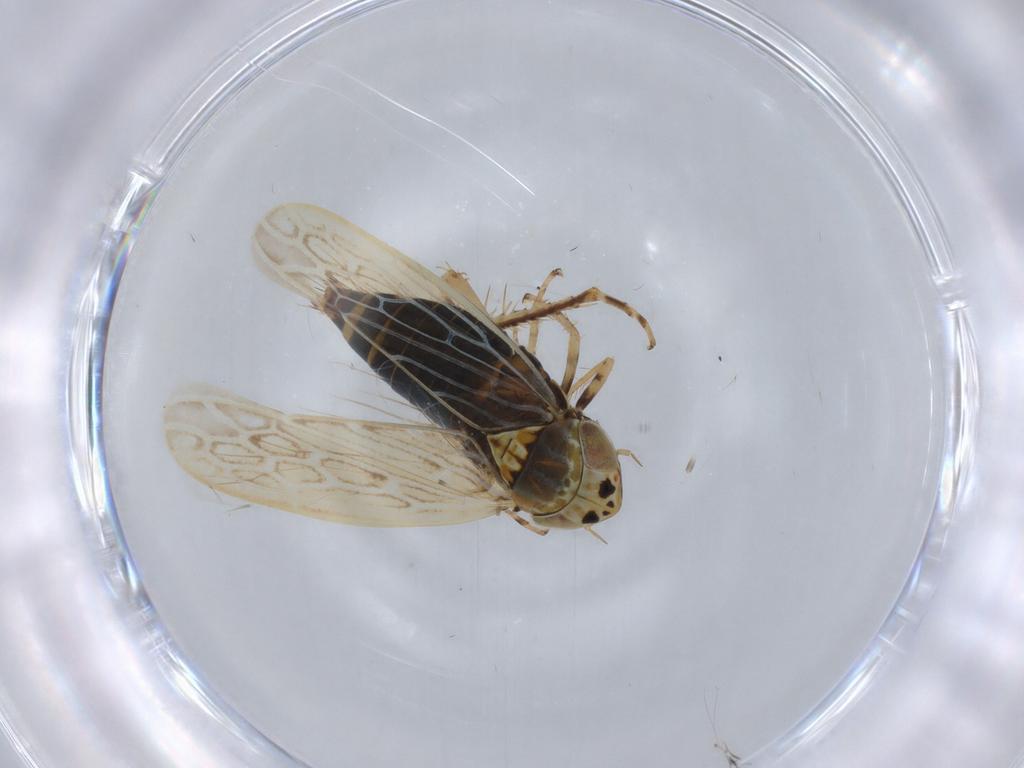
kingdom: Animalia
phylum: Arthropoda
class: Insecta
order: Hemiptera
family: Cicadellidae
